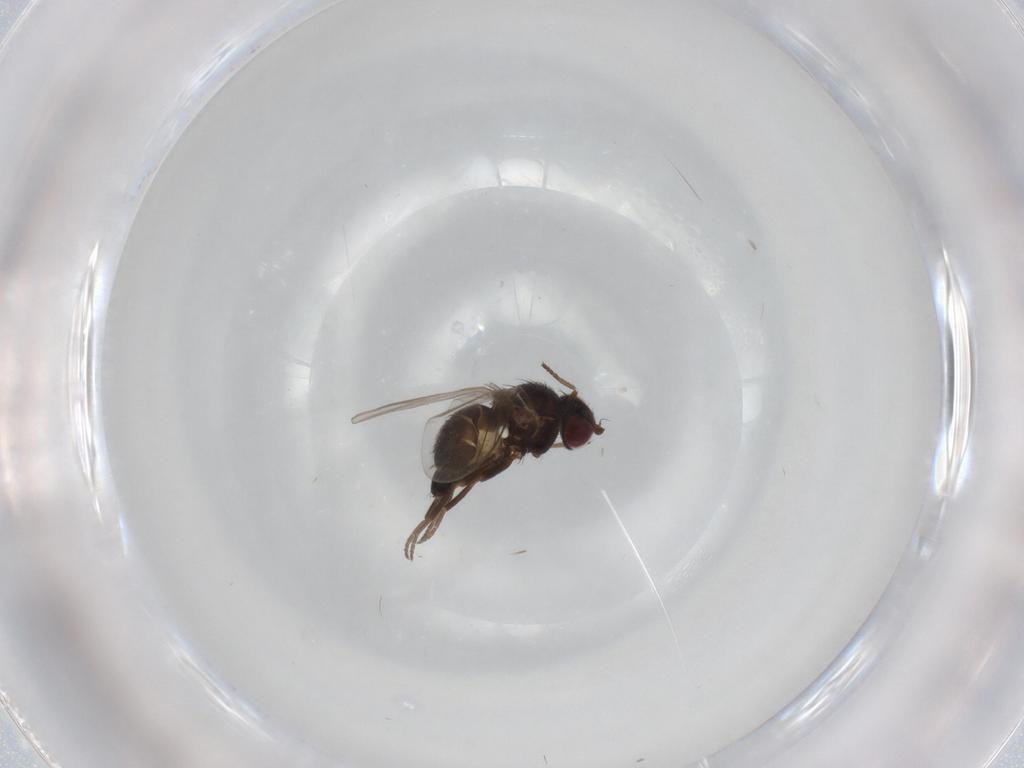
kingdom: Animalia
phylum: Arthropoda
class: Insecta
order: Diptera
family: Agromyzidae
